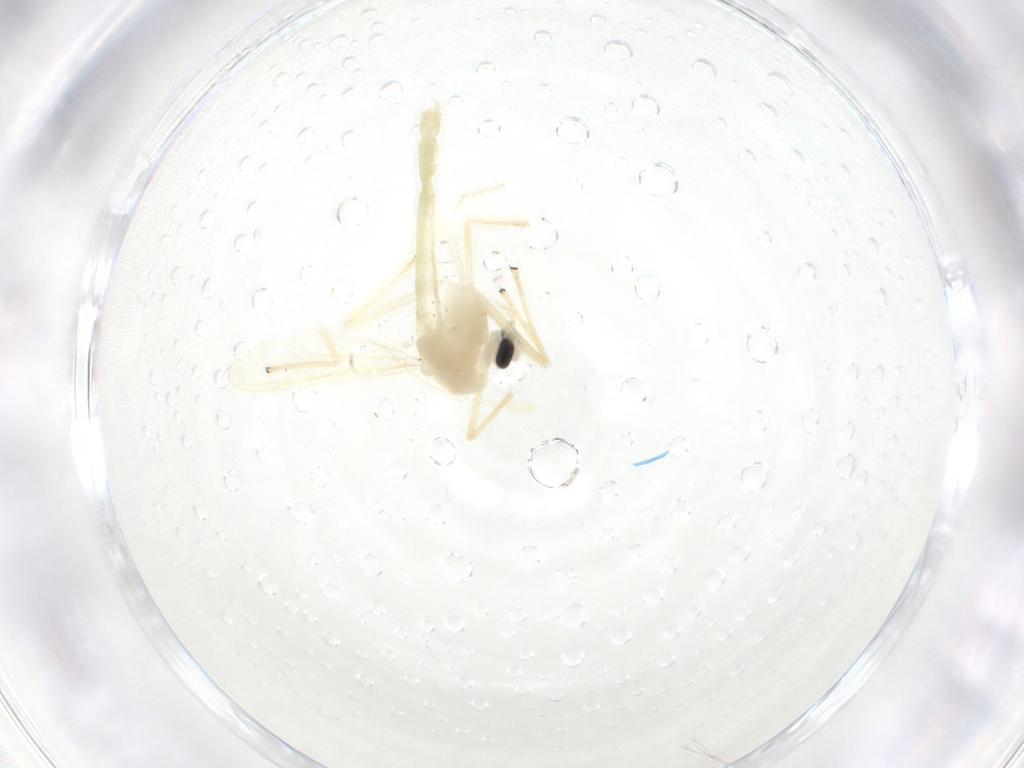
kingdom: Animalia
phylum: Arthropoda
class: Insecta
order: Diptera
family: Chironomidae
